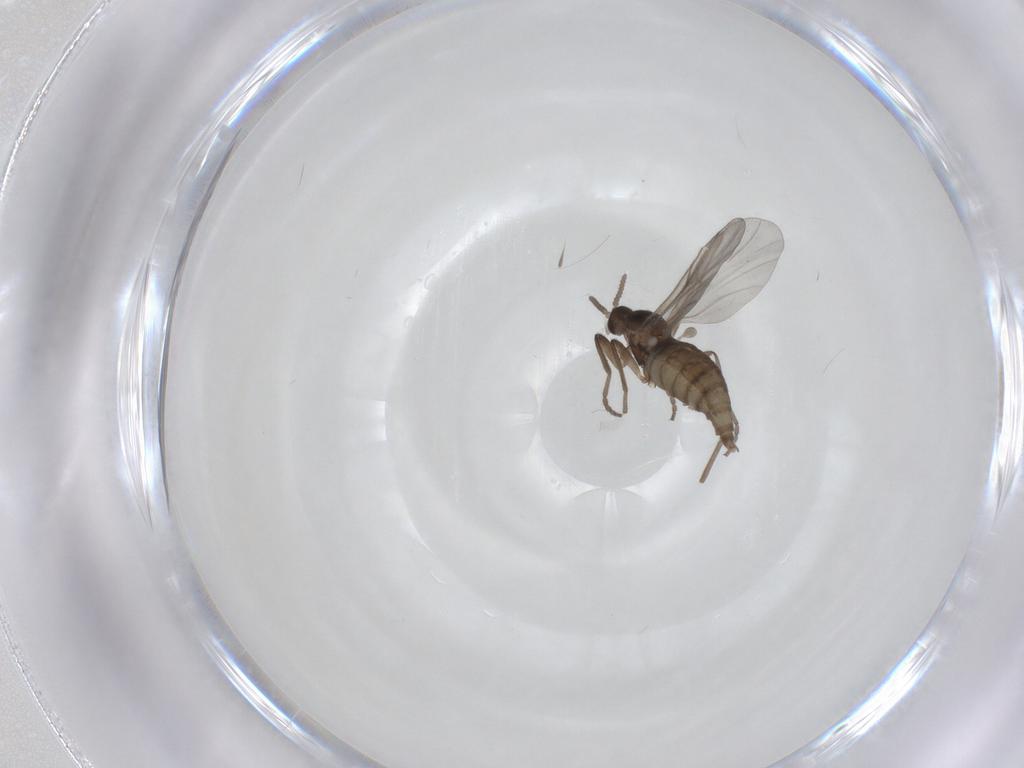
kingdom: Animalia
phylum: Arthropoda
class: Insecta
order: Diptera
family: Cecidomyiidae
